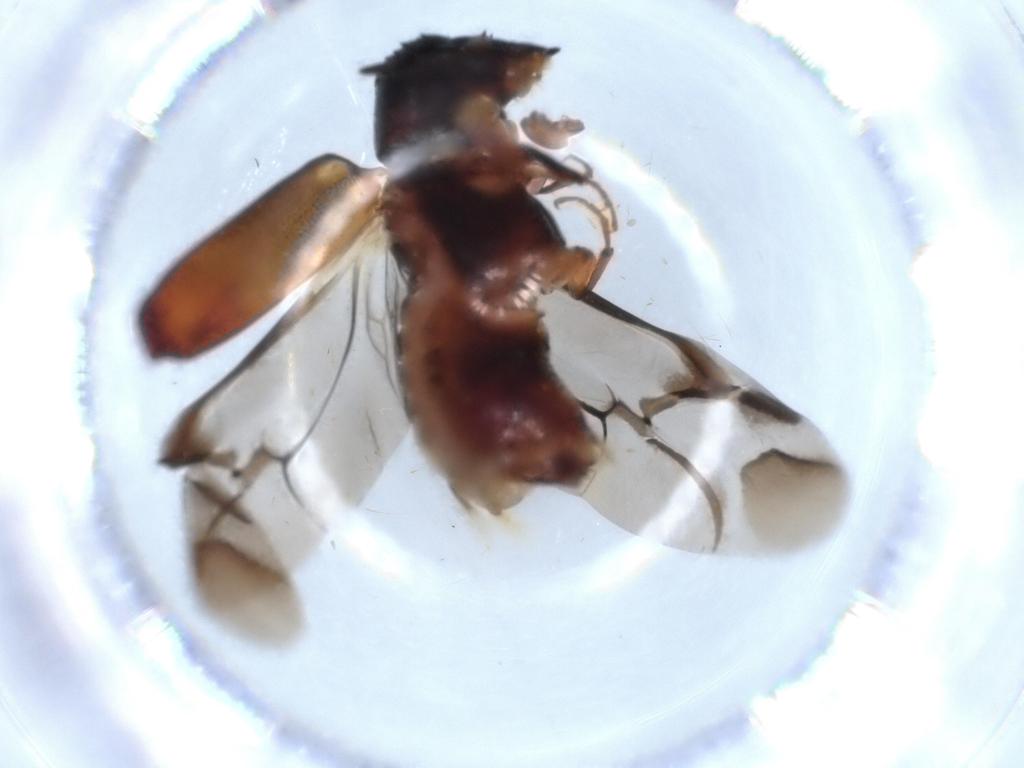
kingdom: Animalia
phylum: Arthropoda
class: Insecta
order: Coleoptera
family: Bostrichidae
